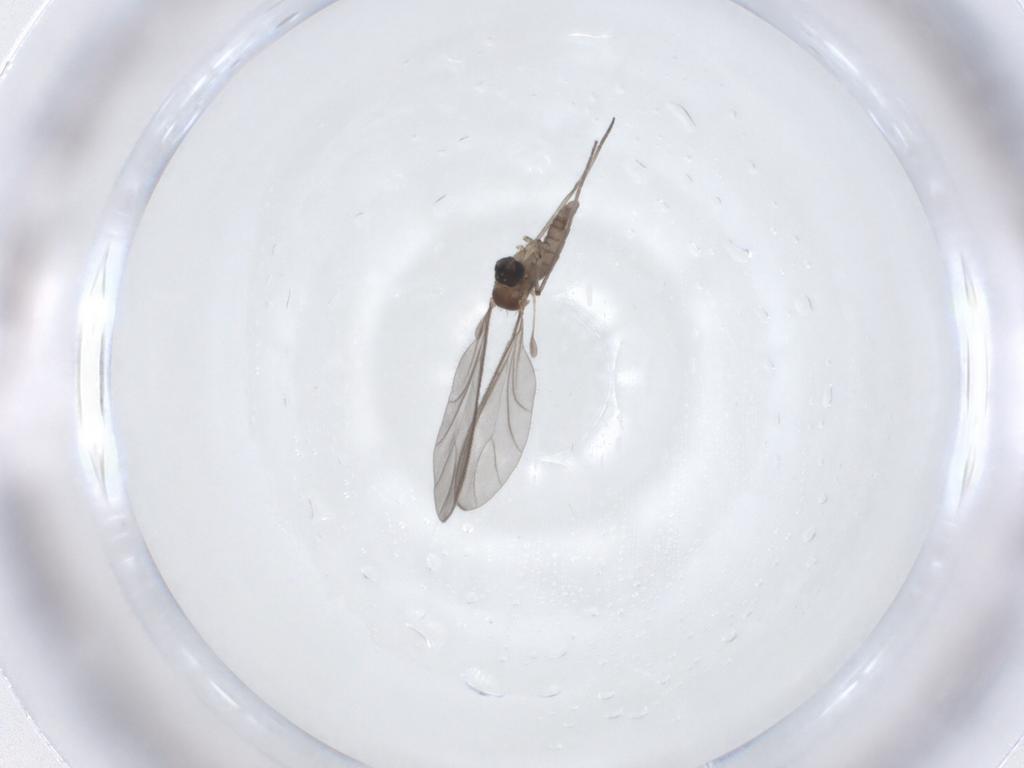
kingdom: Animalia
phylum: Arthropoda
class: Insecta
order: Diptera
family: Sciaridae
